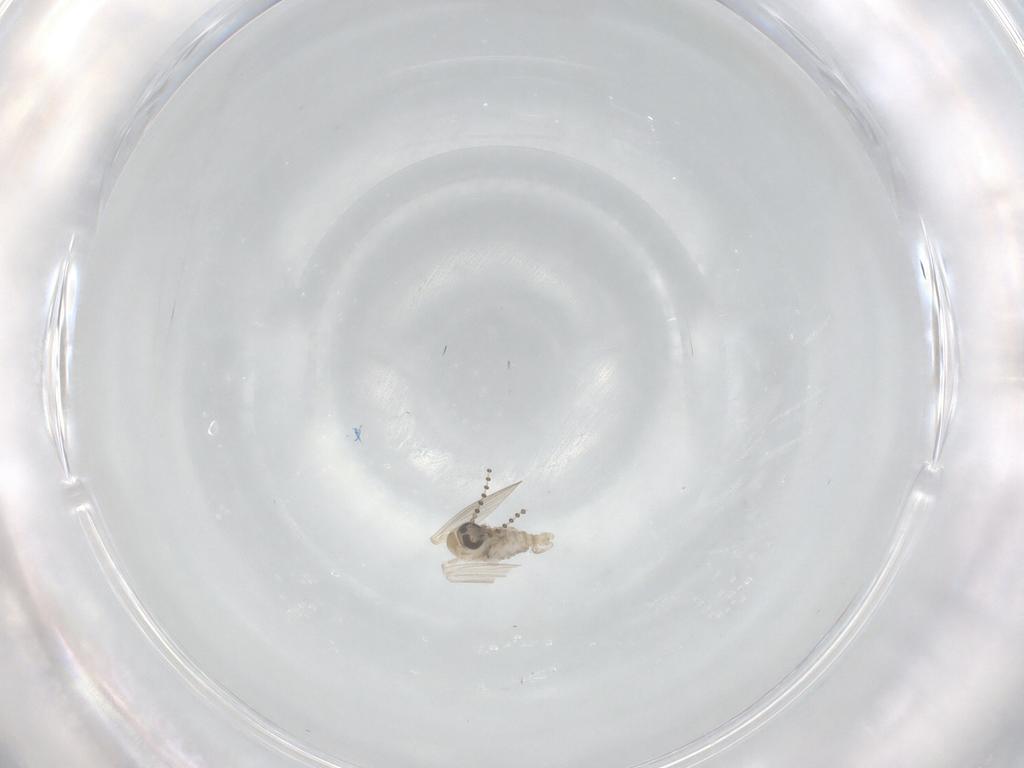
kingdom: Animalia
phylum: Arthropoda
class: Insecta
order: Diptera
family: Psychodidae
